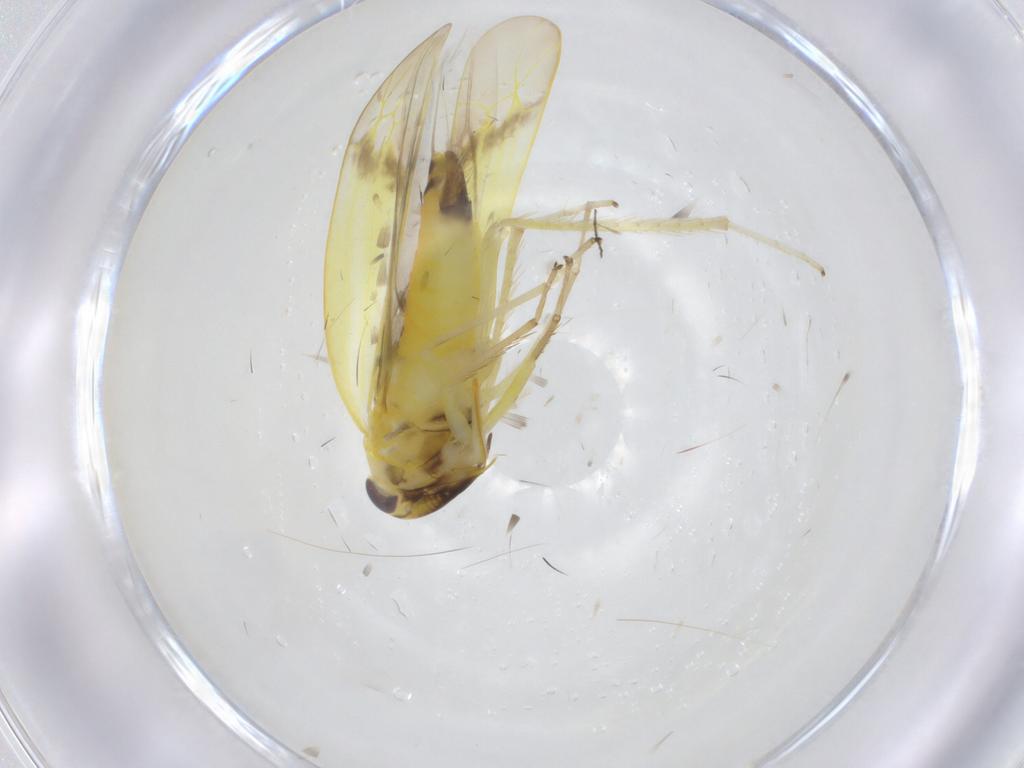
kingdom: Animalia
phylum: Arthropoda
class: Insecta
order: Hemiptera
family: Cicadellidae
